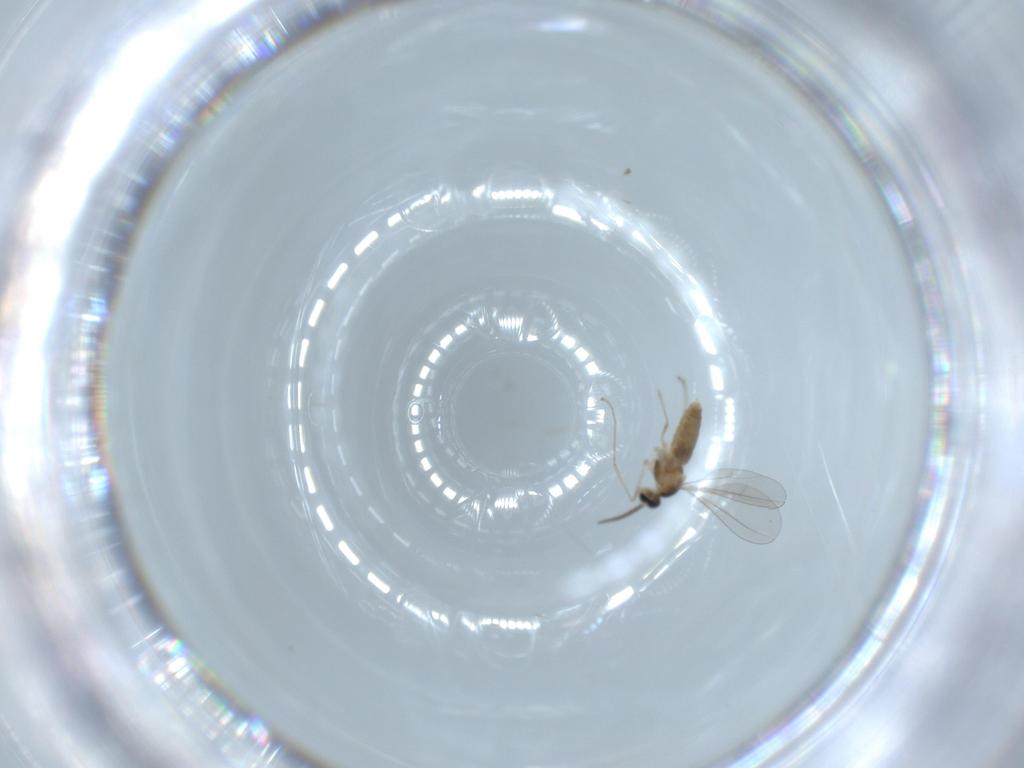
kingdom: Animalia
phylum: Arthropoda
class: Insecta
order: Diptera
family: Cecidomyiidae
